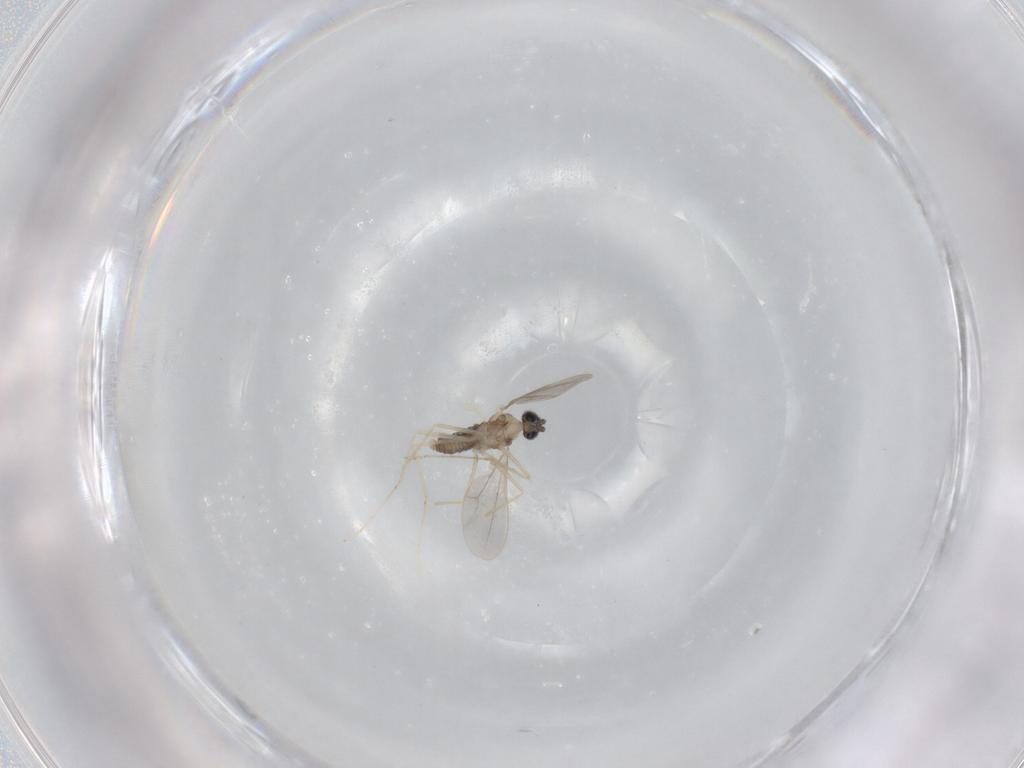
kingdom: Animalia
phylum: Arthropoda
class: Insecta
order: Diptera
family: Cecidomyiidae
